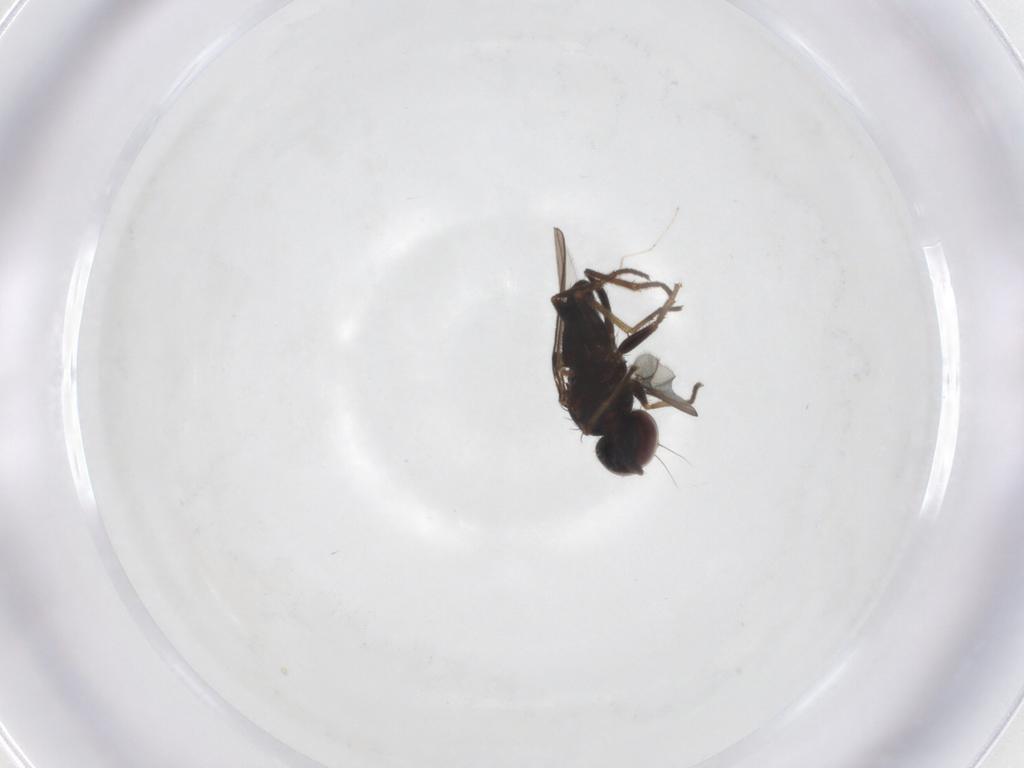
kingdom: Animalia
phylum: Arthropoda
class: Insecta
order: Diptera
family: Dolichopodidae
